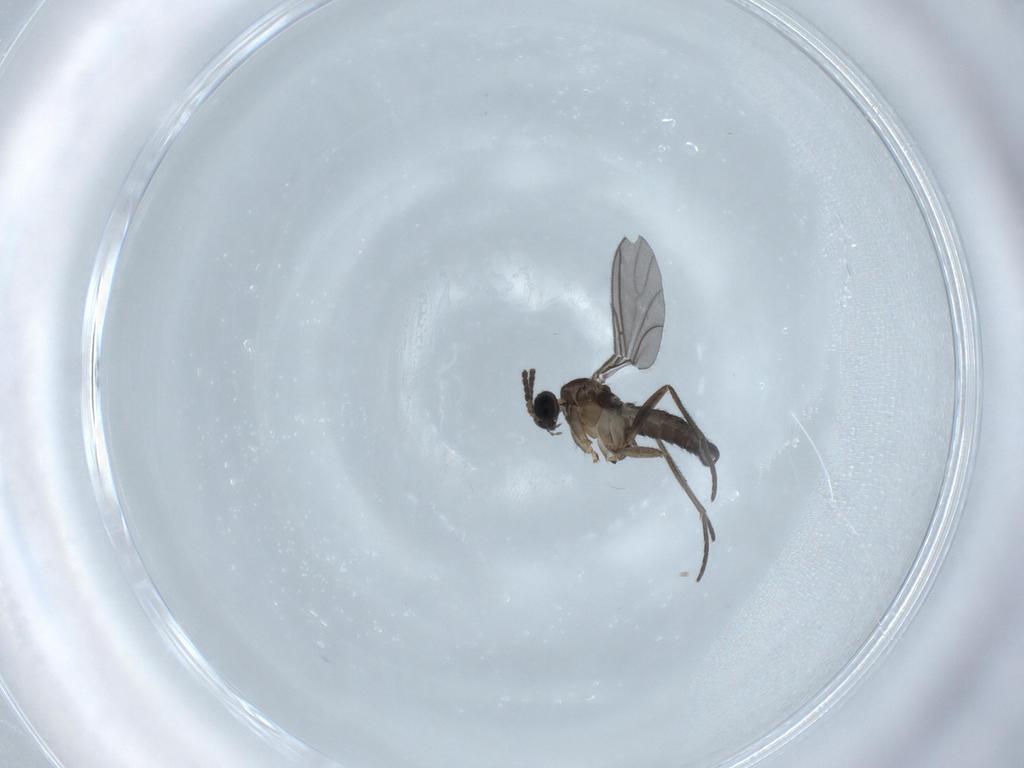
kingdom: Animalia
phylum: Arthropoda
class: Insecta
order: Diptera
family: Sciaridae
